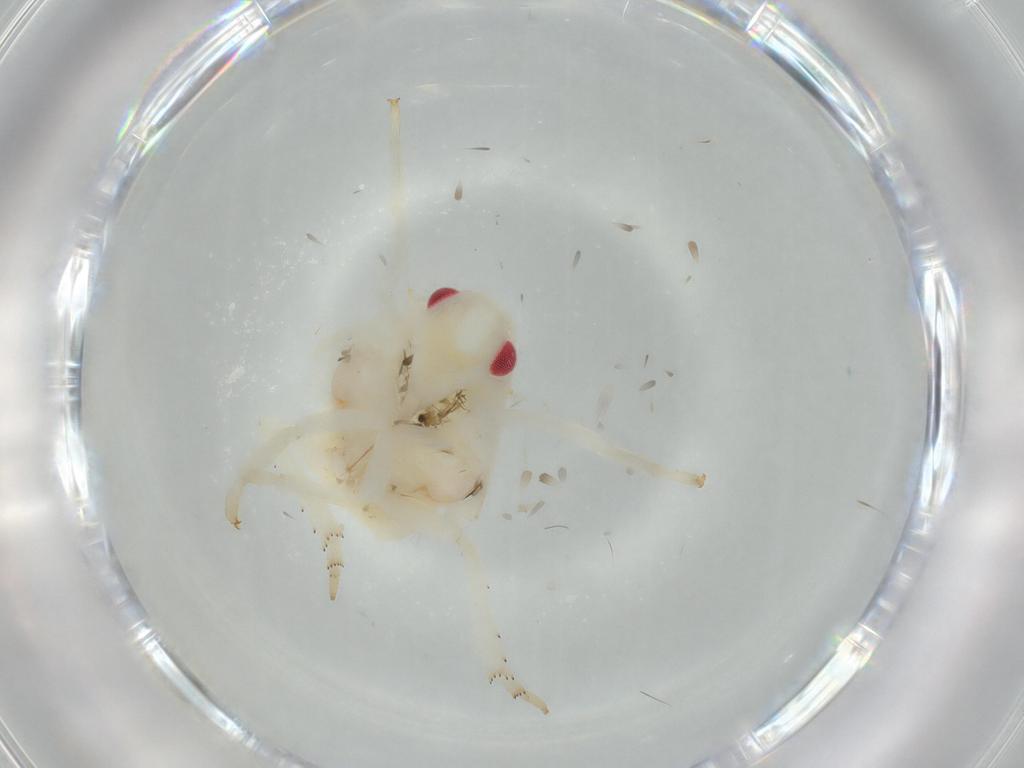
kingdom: Animalia
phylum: Arthropoda
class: Insecta
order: Hemiptera
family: Flatidae
